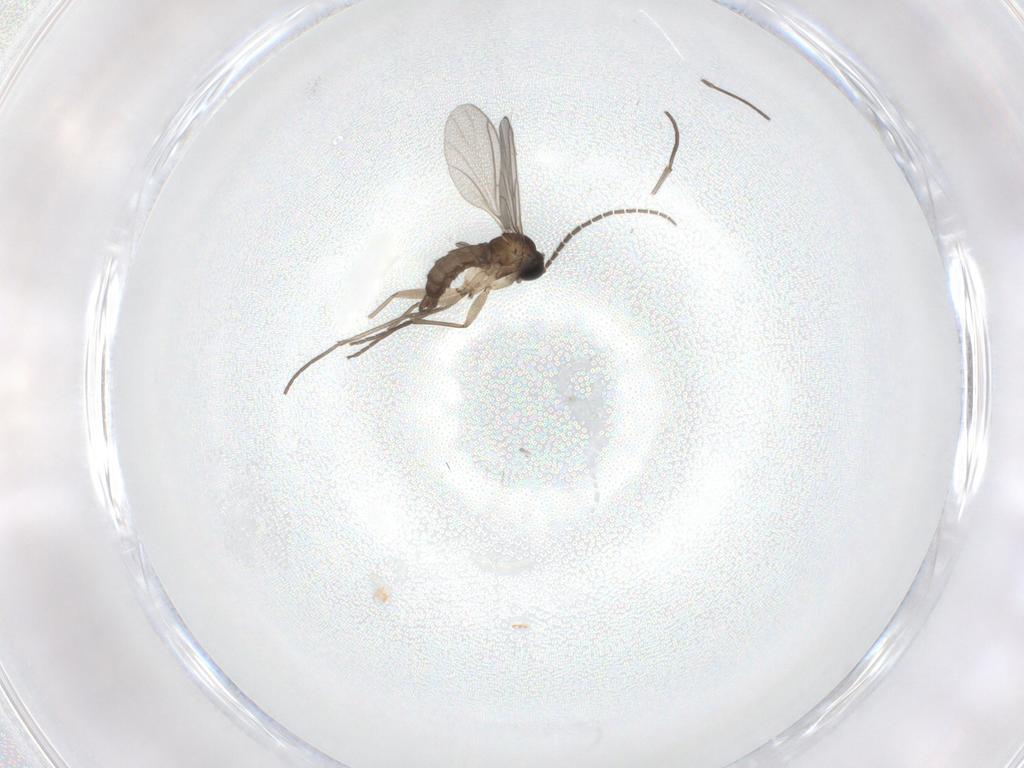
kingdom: Animalia
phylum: Arthropoda
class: Insecta
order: Diptera
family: Sciaridae
